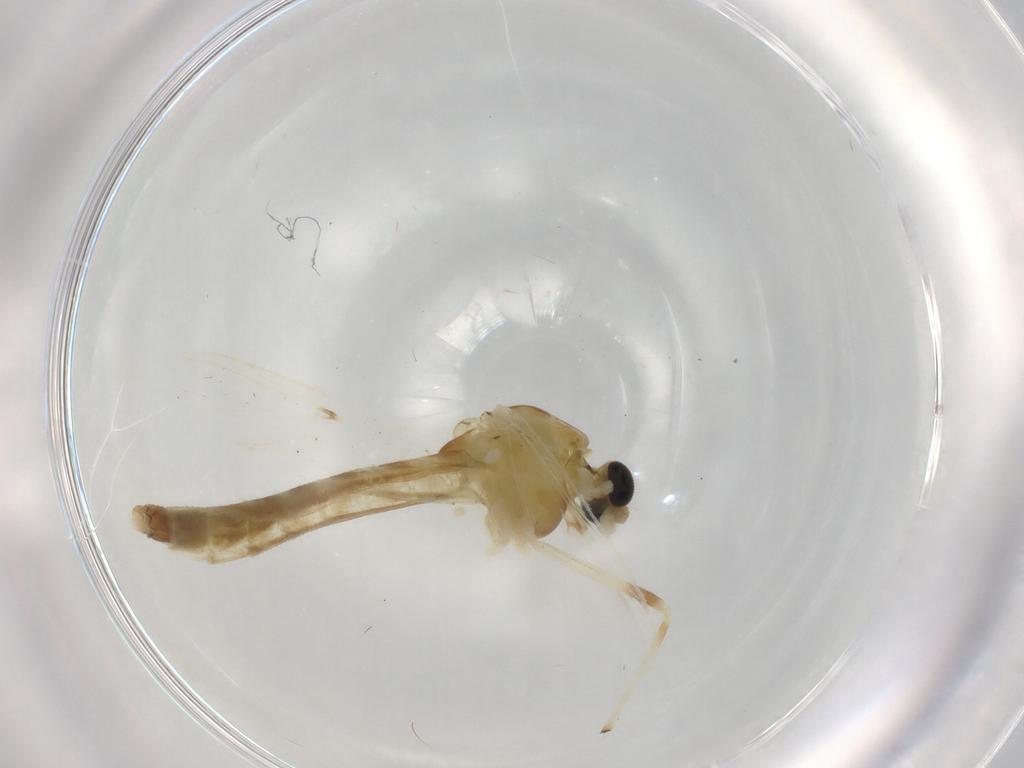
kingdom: Animalia
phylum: Arthropoda
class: Insecta
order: Diptera
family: Chironomidae
